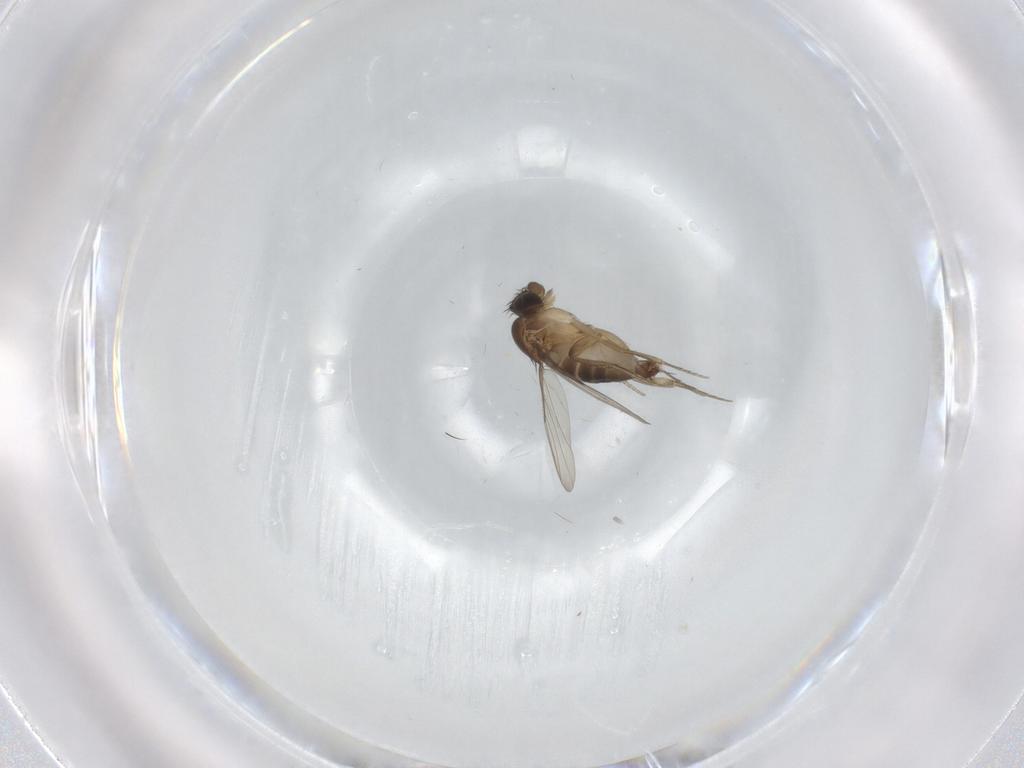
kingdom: Animalia
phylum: Arthropoda
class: Insecta
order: Diptera
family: Phoridae
